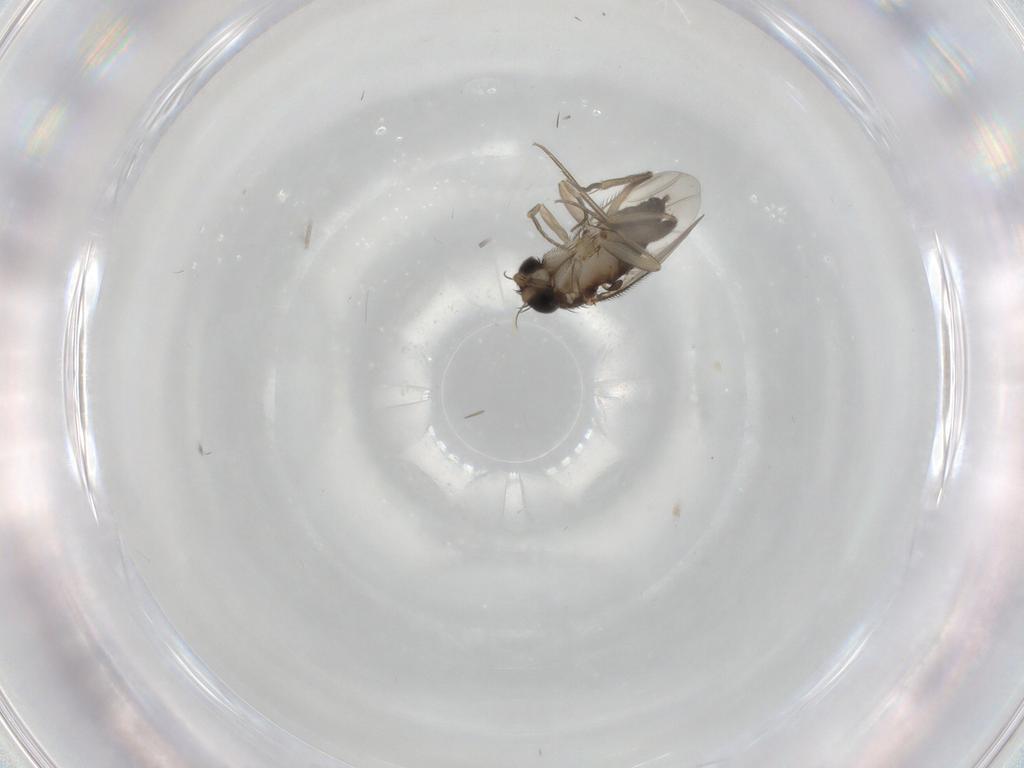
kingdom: Animalia
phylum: Arthropoda
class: Insecta
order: Diptera
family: Phoridae
